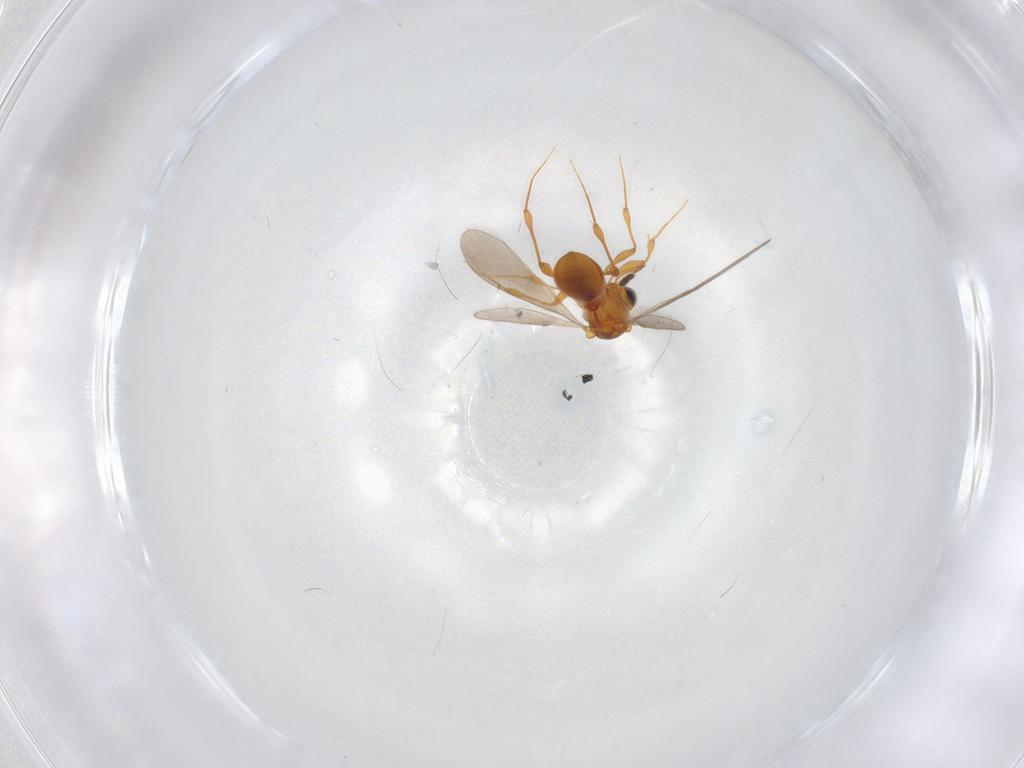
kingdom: Animalia
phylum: Arthropoda
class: Insecta
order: Hymenoptera
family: Platygastridae
